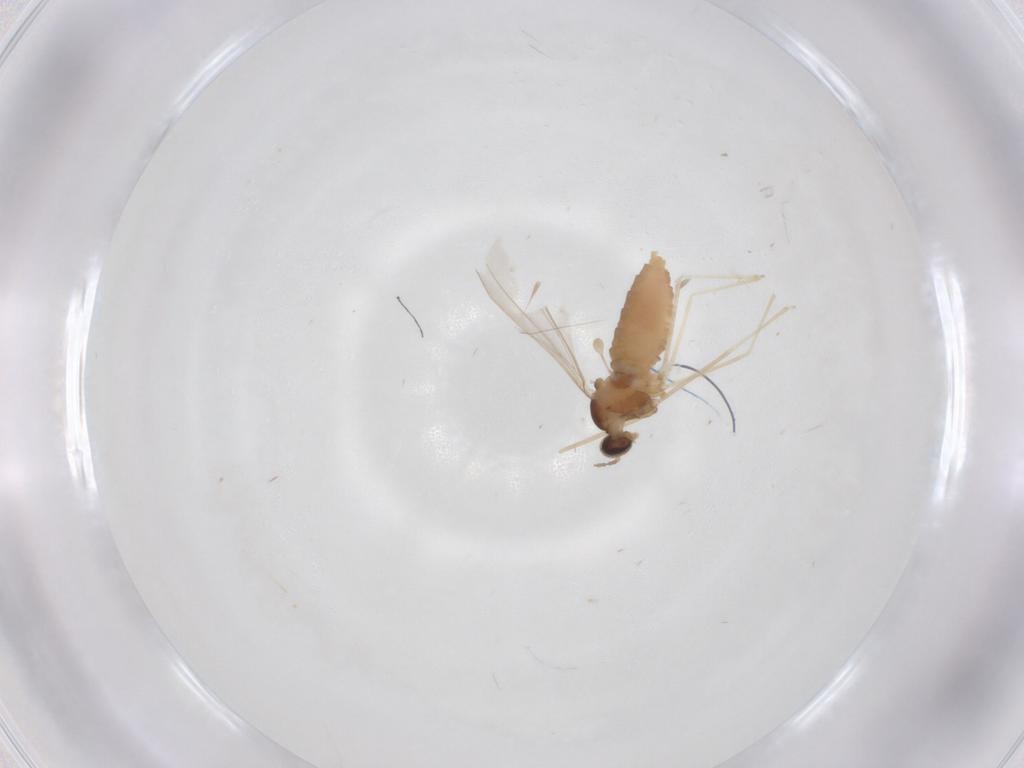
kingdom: Animalia
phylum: Arthropoda
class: Insecta
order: Diptera
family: Cecidomyiidae
